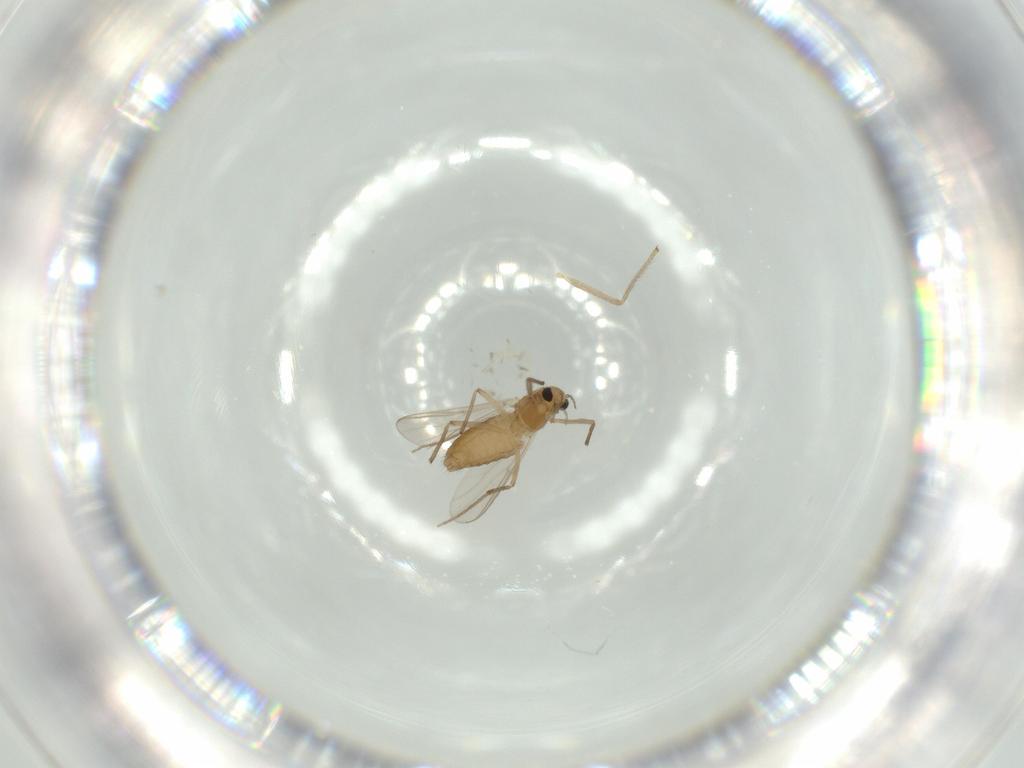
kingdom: Animalia
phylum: Arthropoda
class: Insecta
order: Diptera
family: Chironomidae
